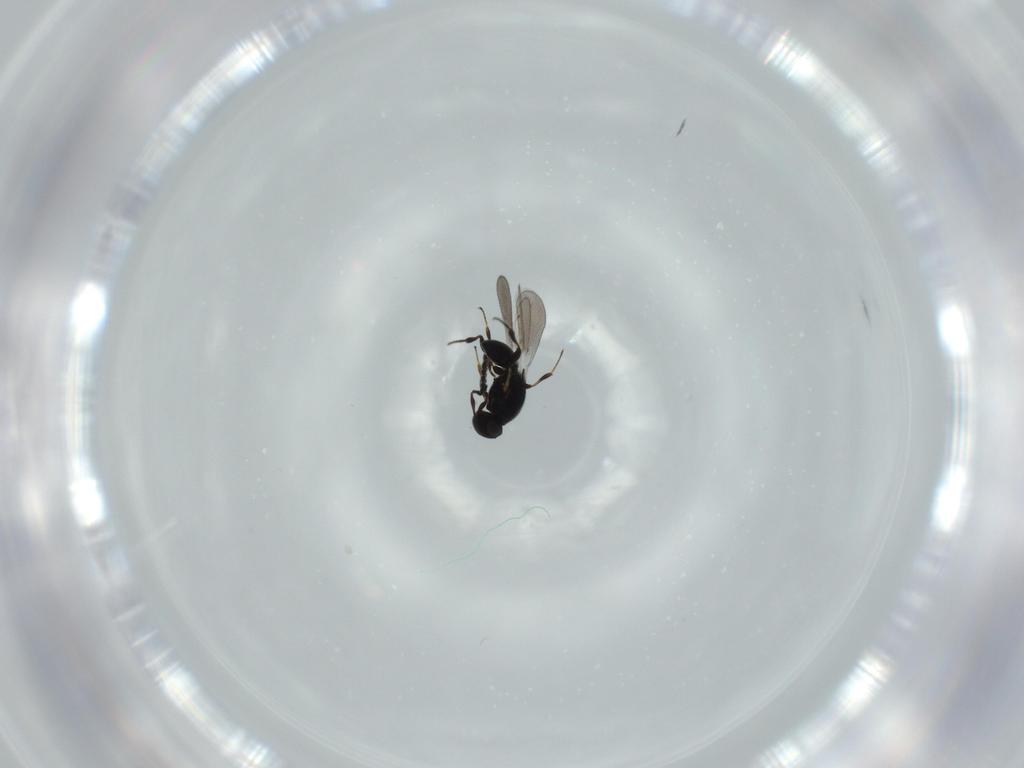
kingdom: Animalia
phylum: Arthropoda
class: Insecta
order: Hymenoptera
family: Platygastridae
